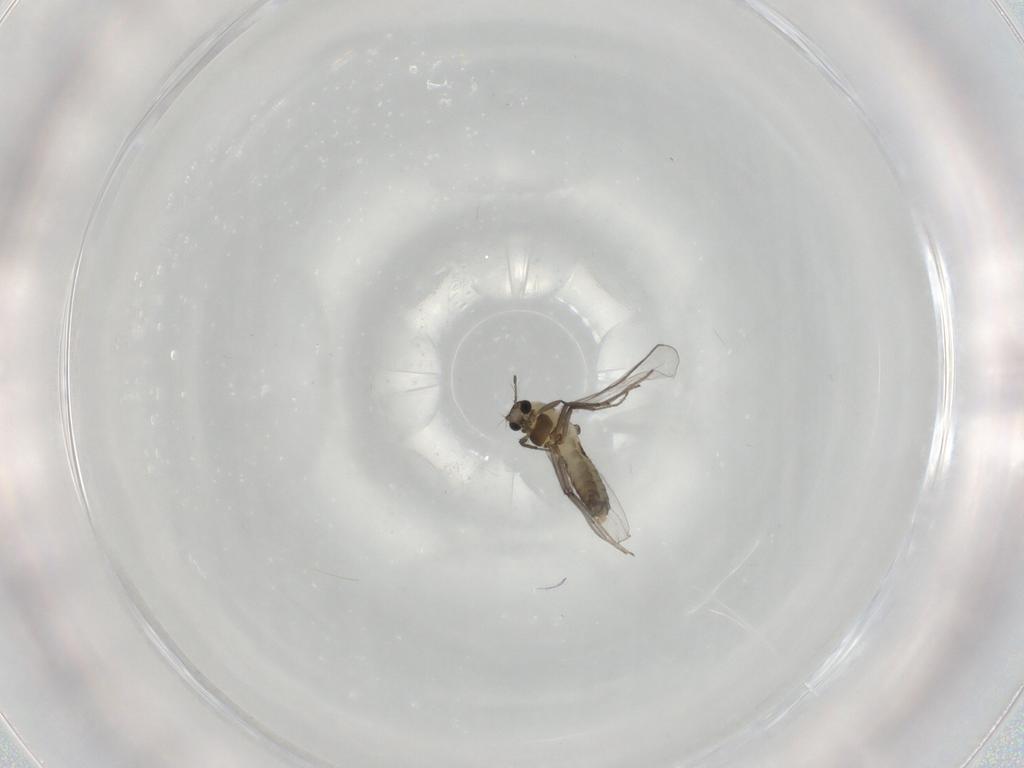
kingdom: Animalia
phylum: Arthropoda
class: Insecta
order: Diptera
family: Chironomidae
